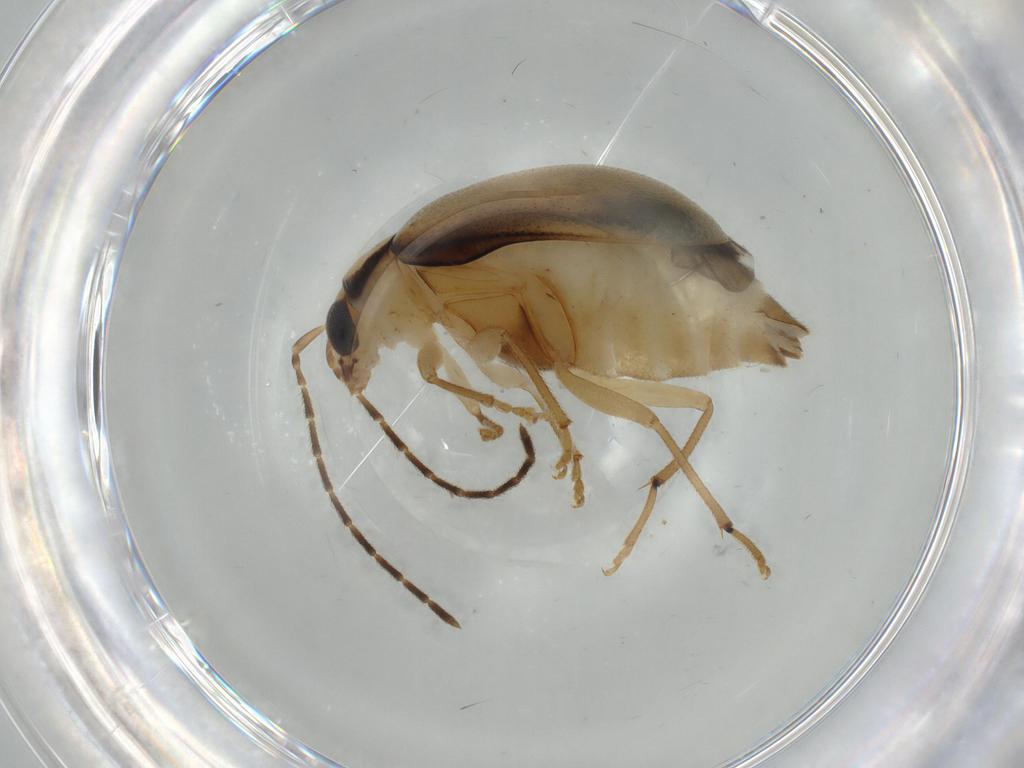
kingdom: Animalia
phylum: Arthropoda
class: Insecta
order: Coleoptera
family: Chrysomelidae
